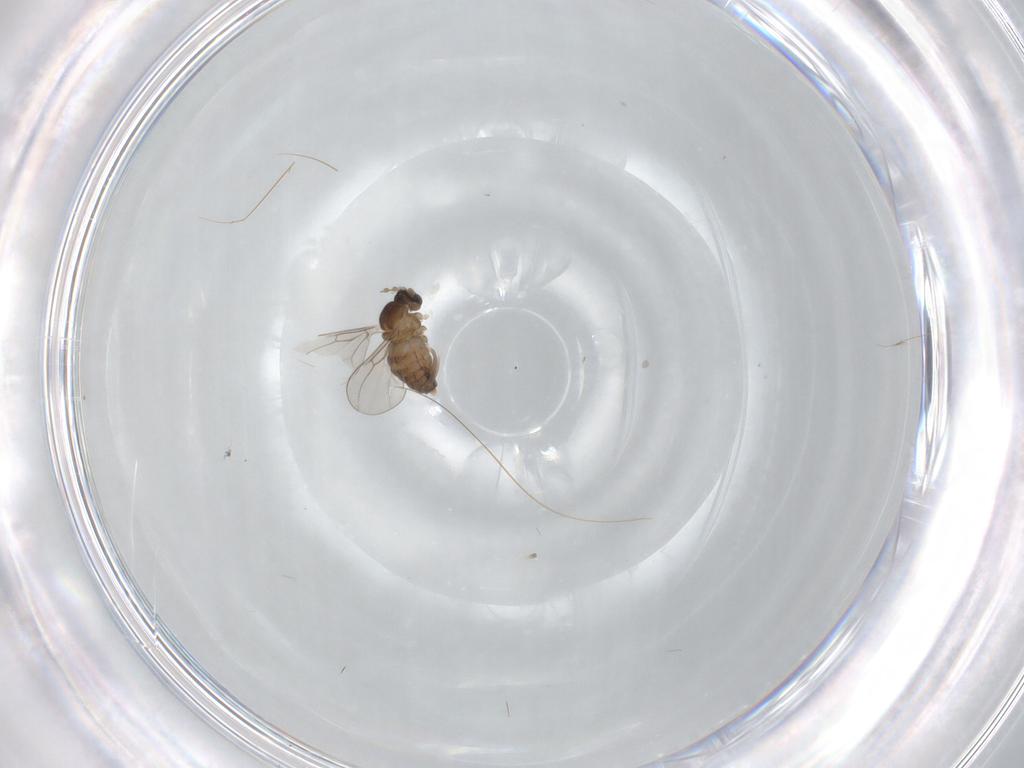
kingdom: Animalia
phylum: Arthropoda
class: Insecta
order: Diptera
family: Cecidomyiidae
